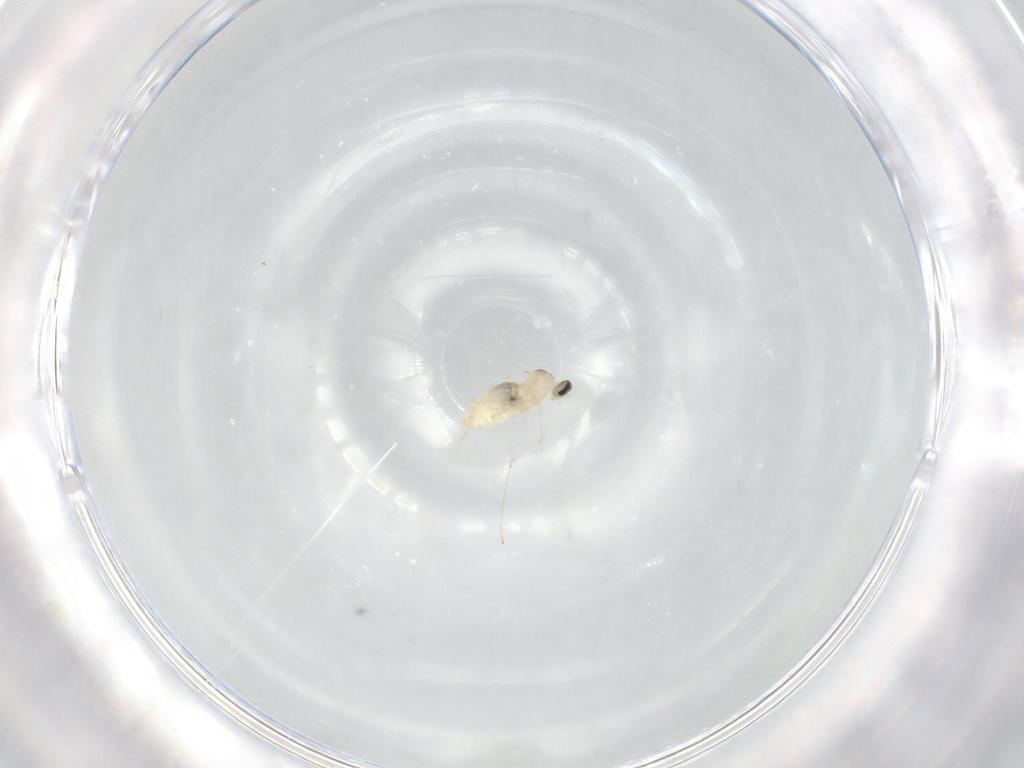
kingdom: Animalia
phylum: Arthropoda
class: Insecta
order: Diptera
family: Cecidomyiidae
